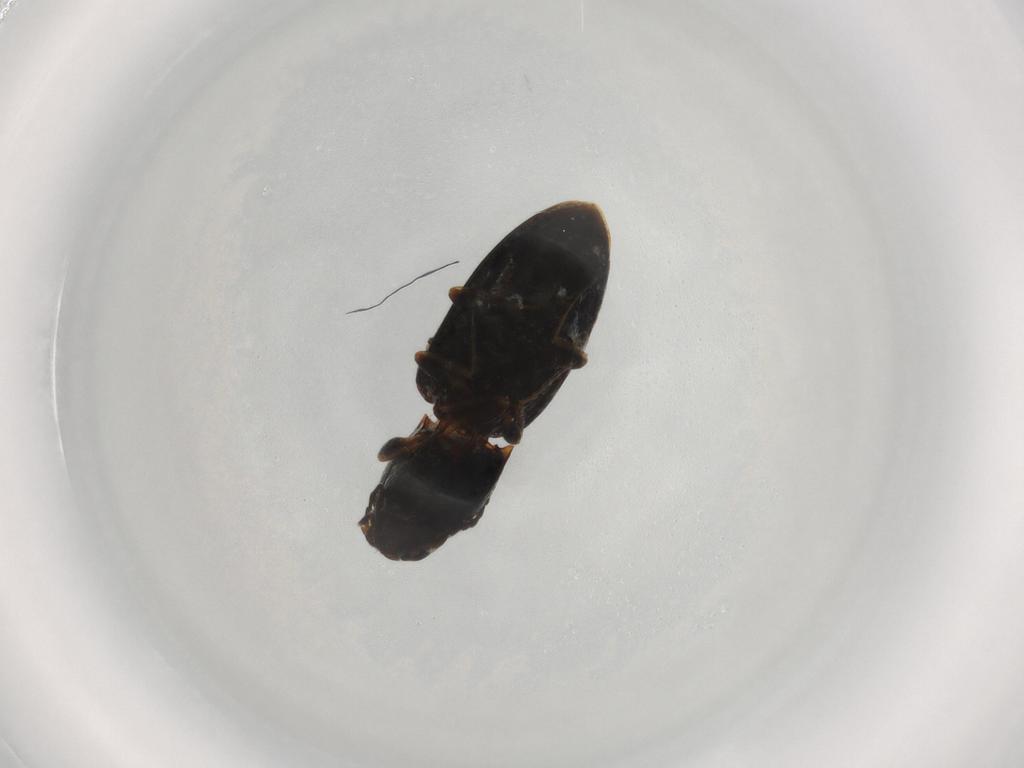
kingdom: Animalia
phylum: Arthropoda
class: Insecta
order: Coleoptera
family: Elateridae
